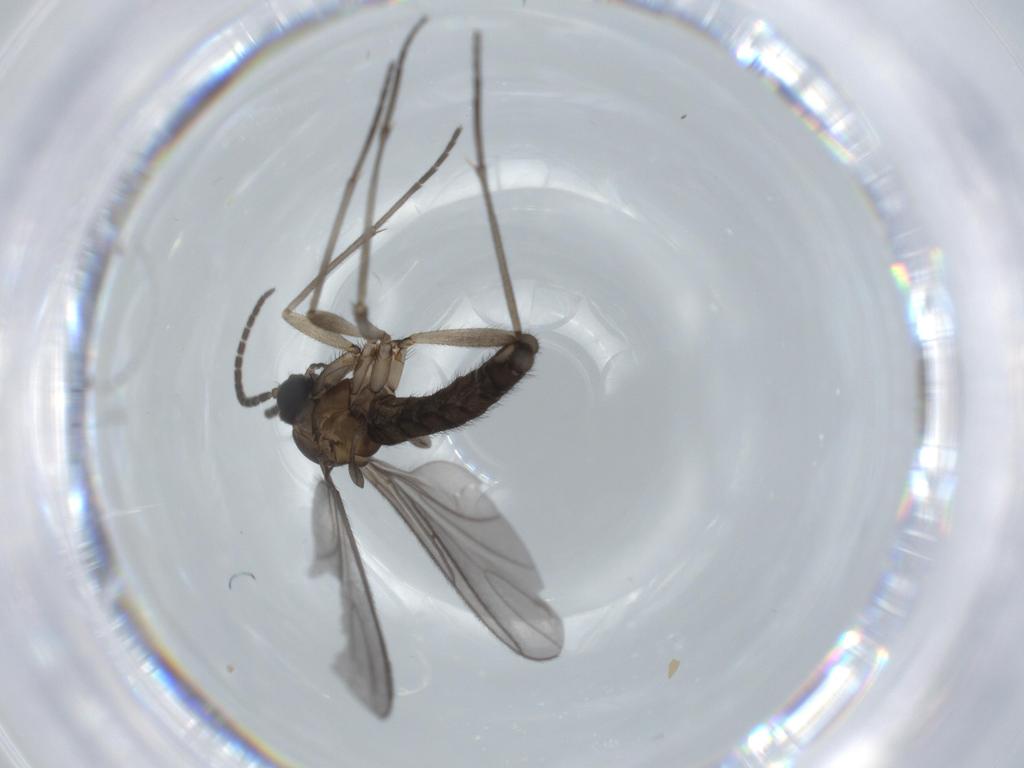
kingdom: Animalia
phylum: Arthropoda
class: Insecta
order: Diptera
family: Sciaridae
